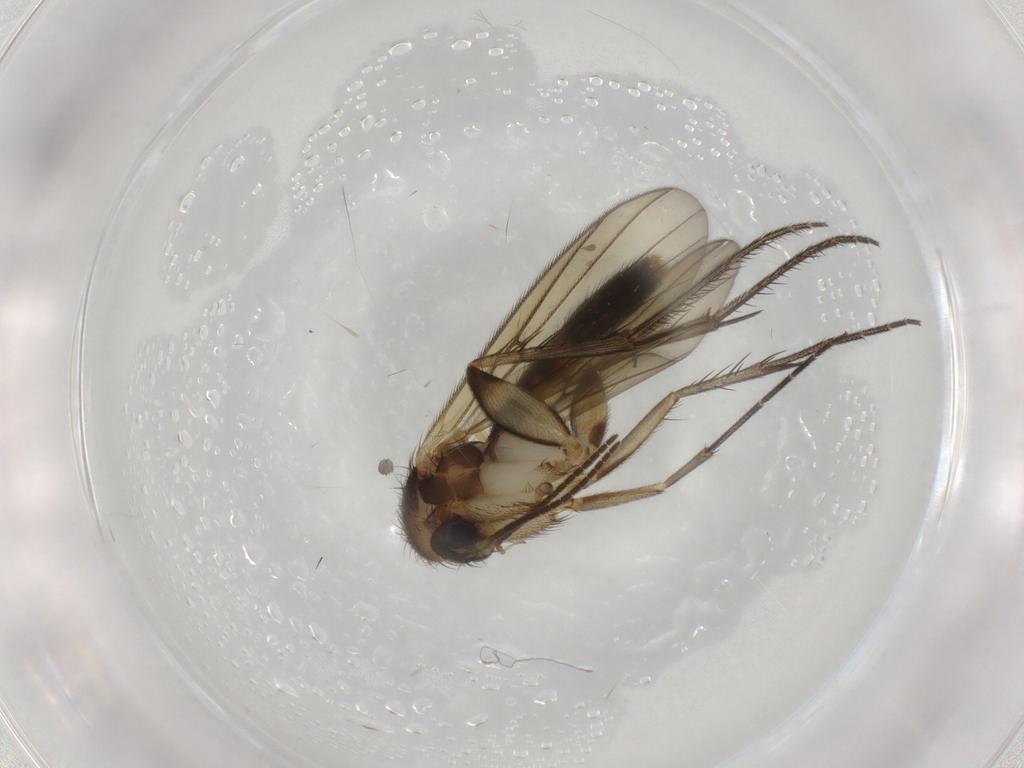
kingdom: Animalia
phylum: Arthropoda
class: Insecta
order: Diptera
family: Mycetophilidae
